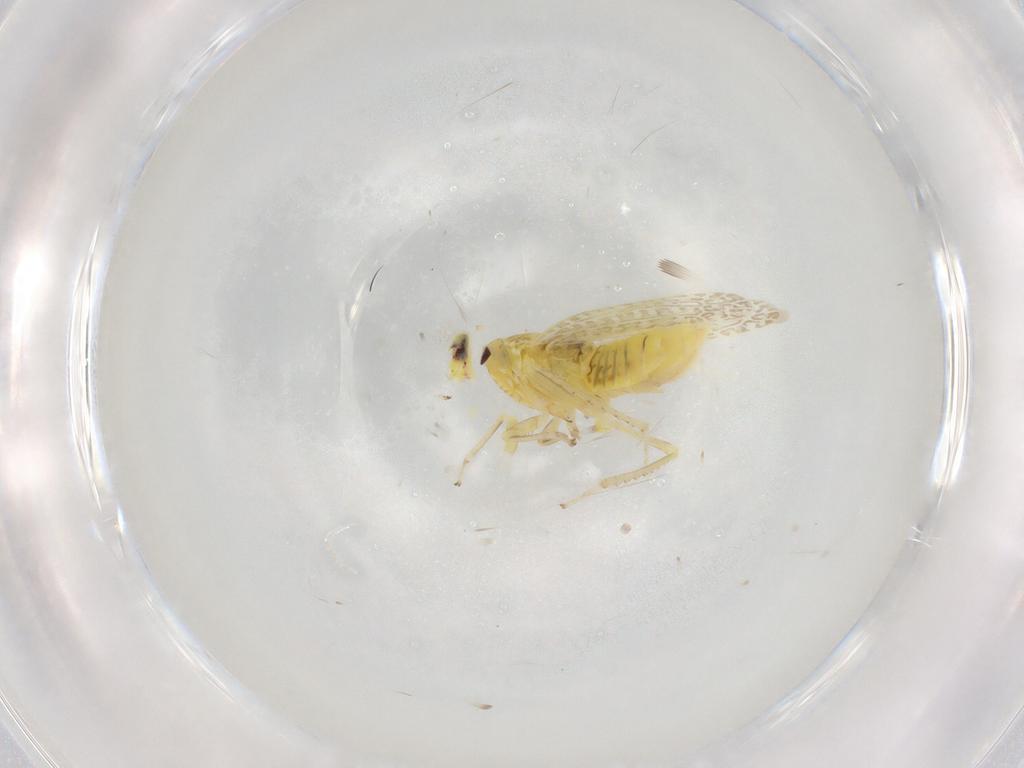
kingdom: Animalia
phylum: Arthropoda
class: Insecta
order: Hemiptera
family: Cicadellidae
